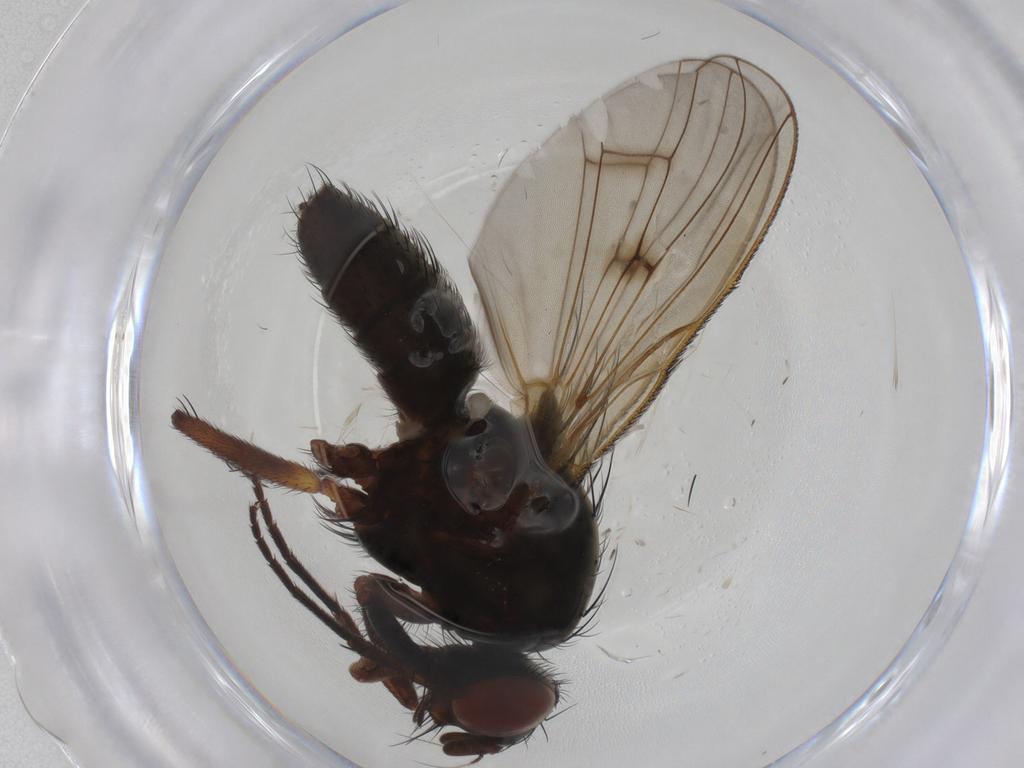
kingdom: Animalia
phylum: Arthropoda
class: Insecta
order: Diptera
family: Anthomyiidae
